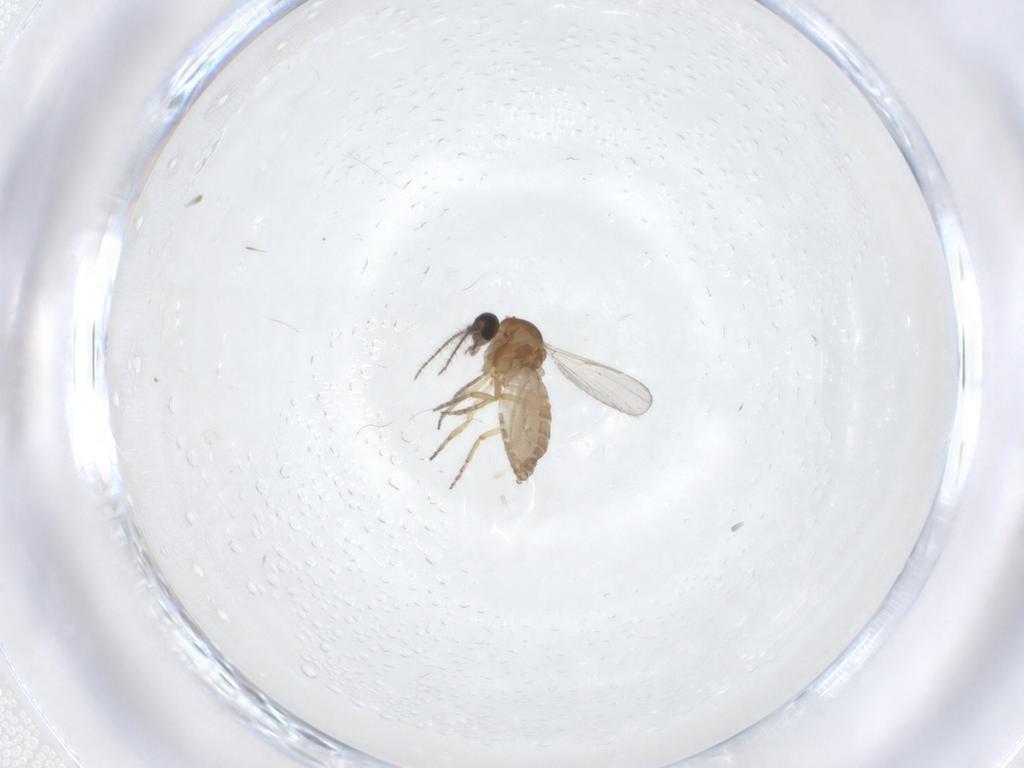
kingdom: Animalia
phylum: Arthropoda
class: Insecta
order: Diptera
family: Ceratopogonidae
